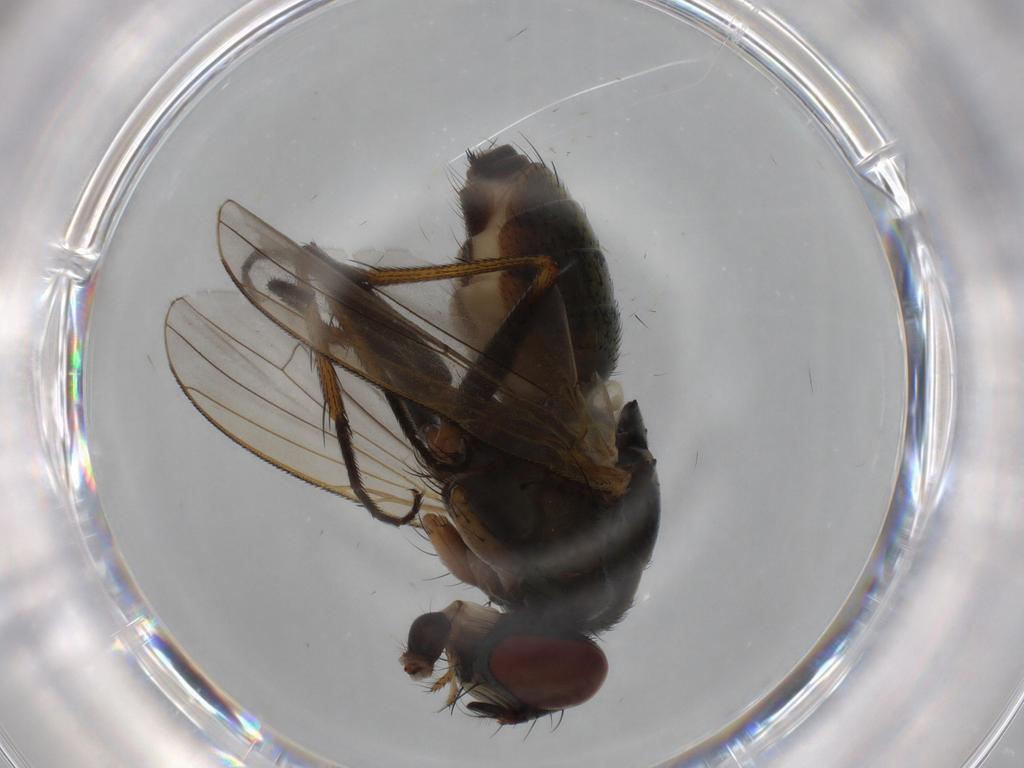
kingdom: Animalia
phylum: Arthropoda
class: Insecta
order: Diptera
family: Muscidae
